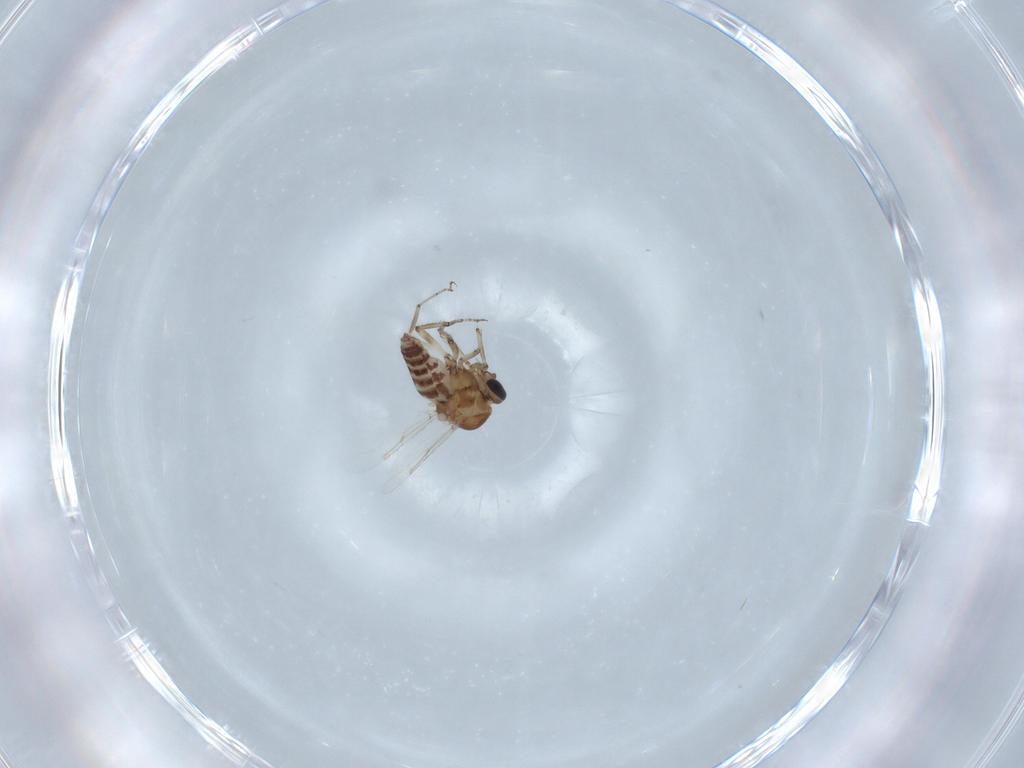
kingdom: Animalia
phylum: Arthropoda
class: Insecta
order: Diptera
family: Ceratopogonidae
